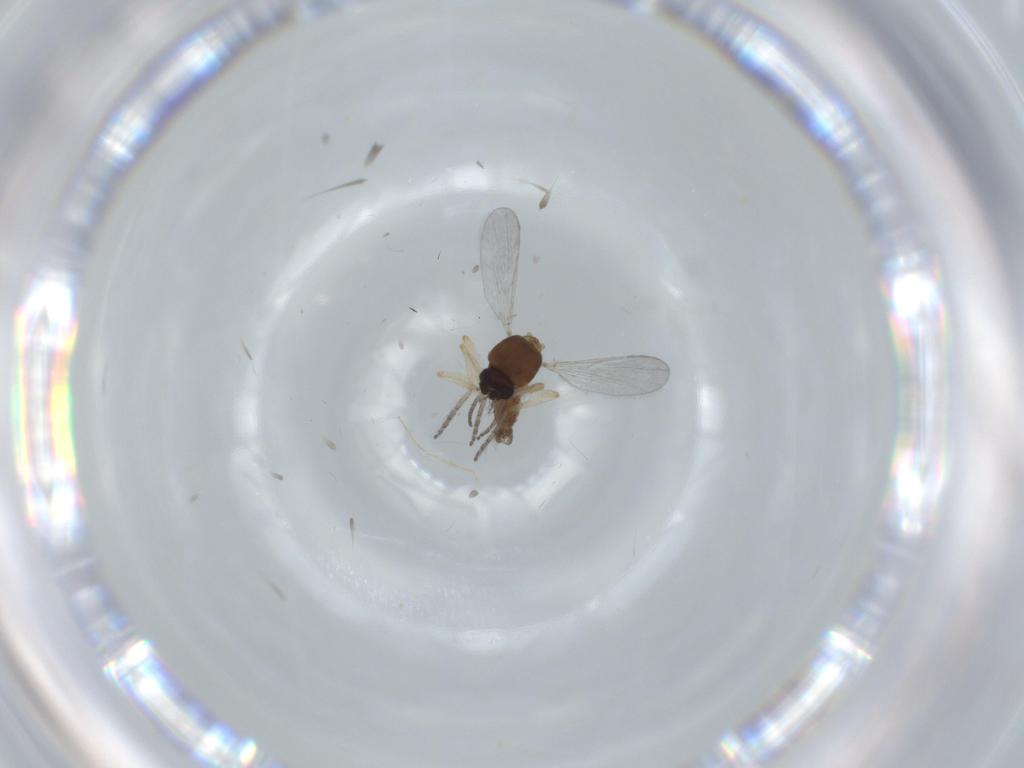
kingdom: Animalia
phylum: Arthropoda
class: Insecta
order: Diptera
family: Ceratopogonidae
